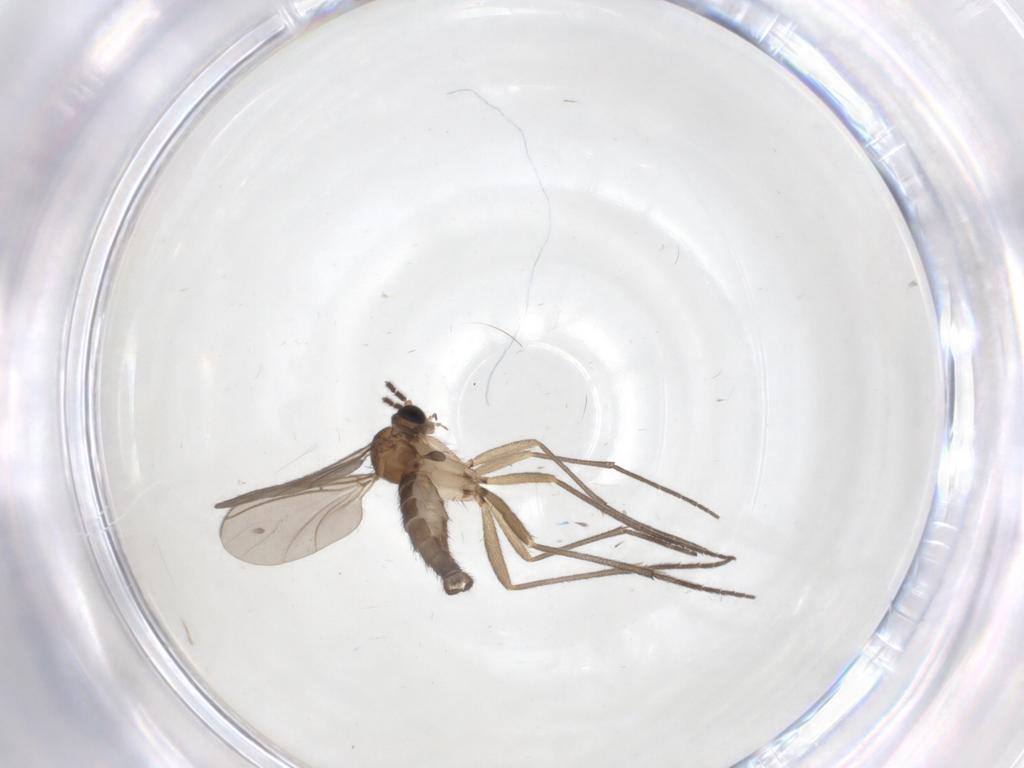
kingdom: Animalia
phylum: Arthropoda
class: Insecta
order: Diptera
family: Sciaridae
